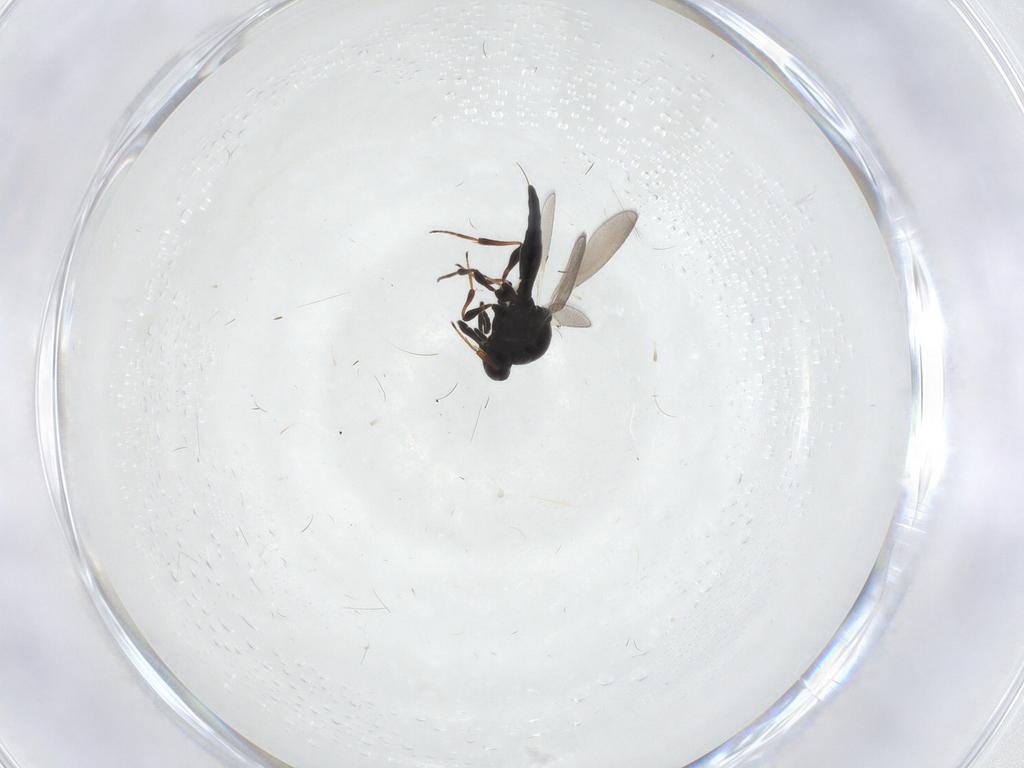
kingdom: Animalia
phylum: Arthropoda
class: Insecta
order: Hymenoptera
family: Platygastridae
